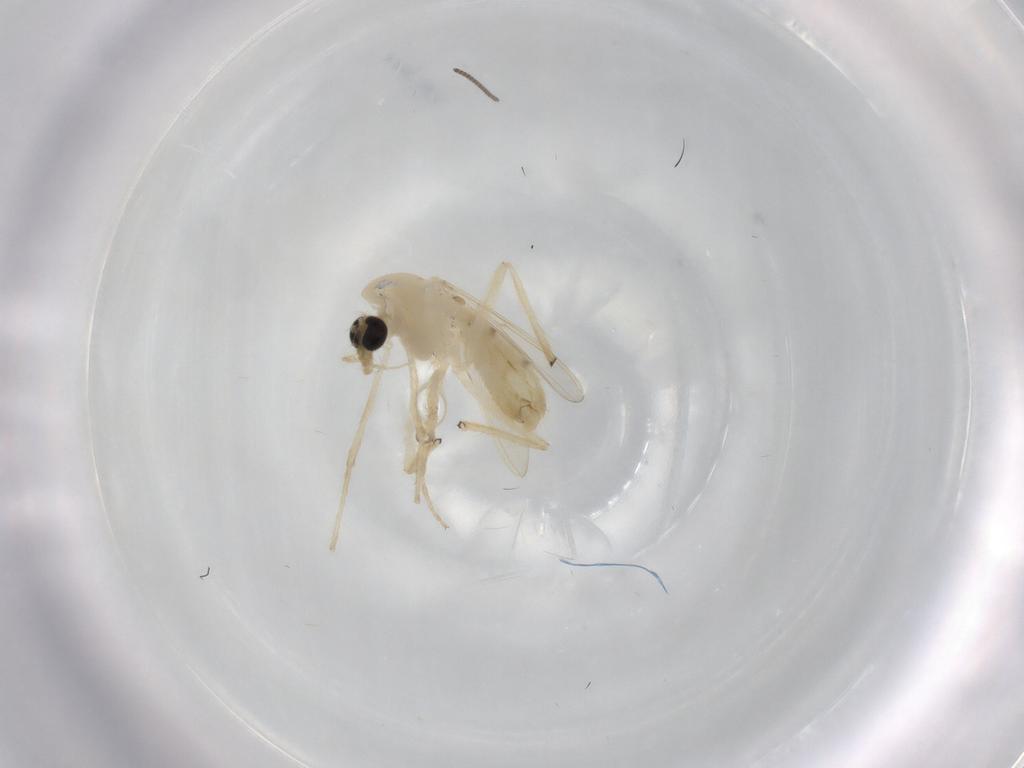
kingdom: Animalia
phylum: Arthropoda
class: Insecta
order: Diptera
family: Chironomidae
